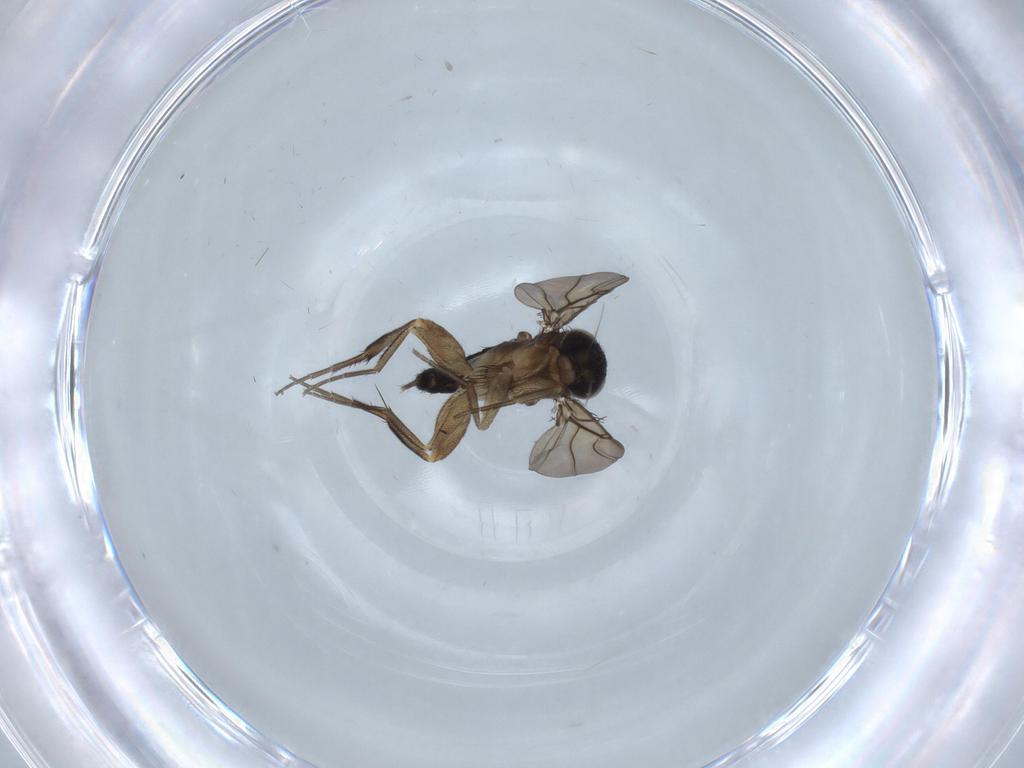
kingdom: Animalia
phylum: Arthropoda
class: Insecta
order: Diptera
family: Phoridae
